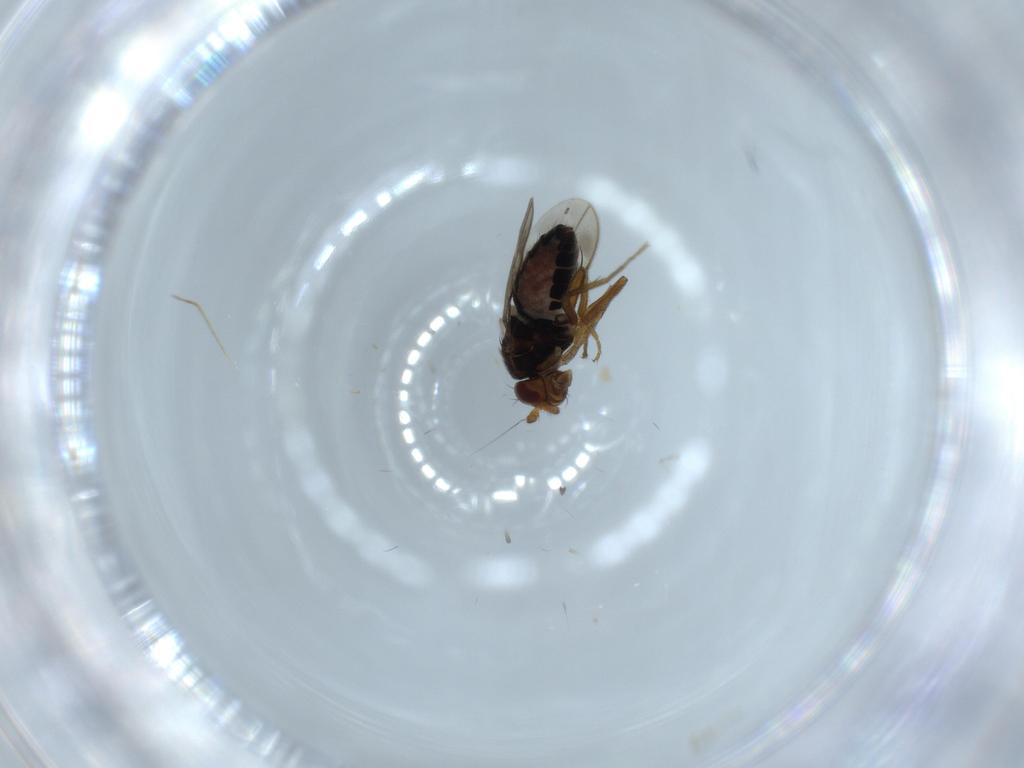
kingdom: Animalia
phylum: Arthropoda
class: Insecta
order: Diptera
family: Sphaeroceridae
